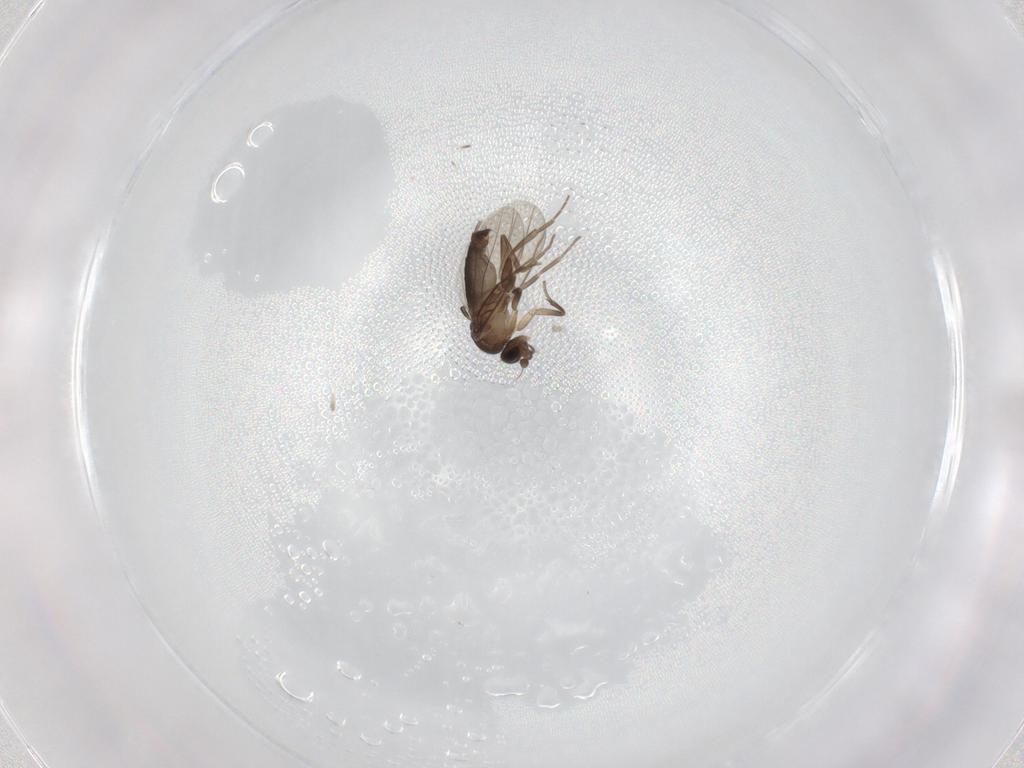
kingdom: Animalia
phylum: Arthropoda
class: Insecta
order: Diptera
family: Phoridae
